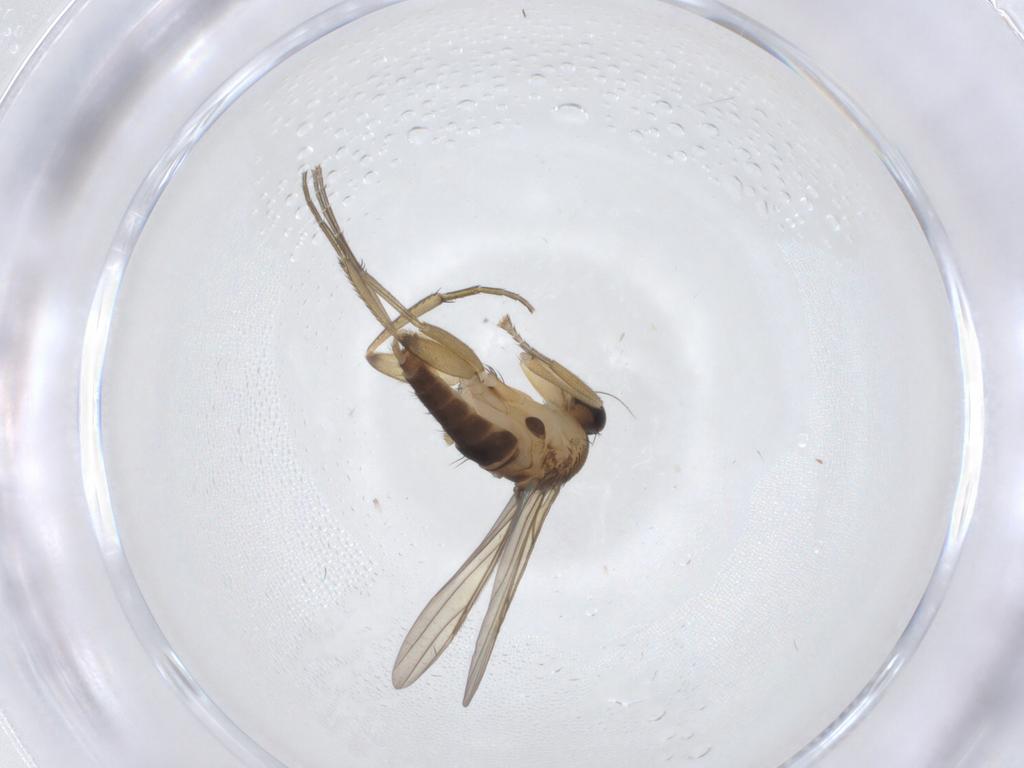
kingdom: Animalia
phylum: Arthropoda
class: Insecta
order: Diptera
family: Phoridae
